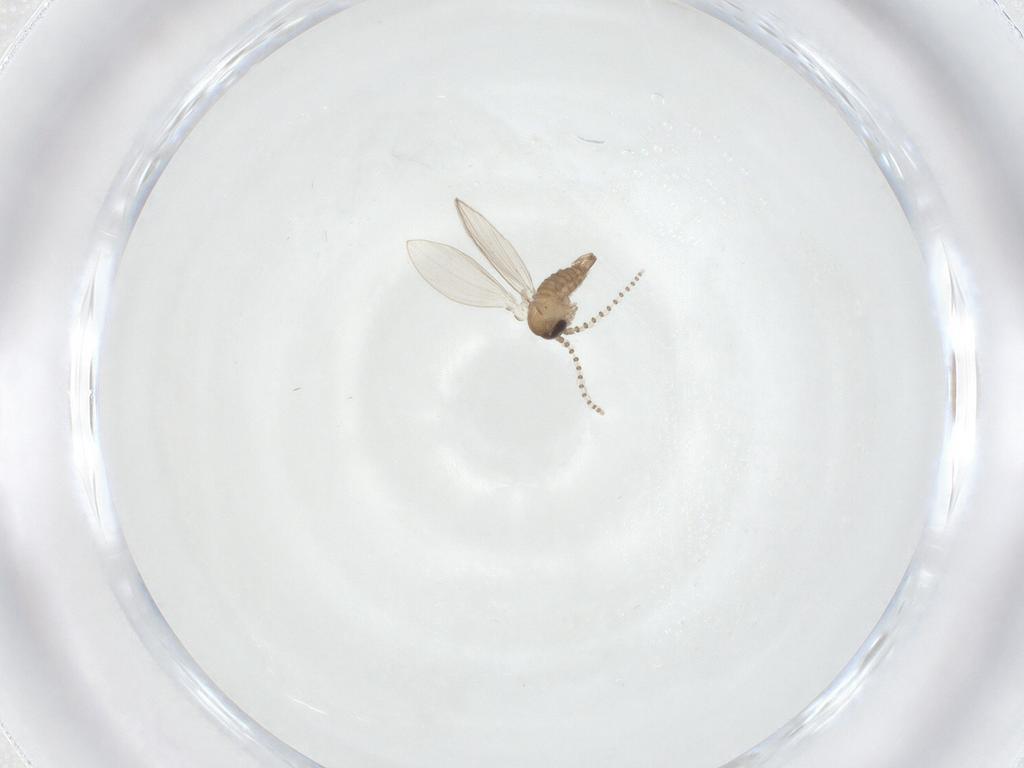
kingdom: Animalia
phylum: Arthropoda
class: Insecta
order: Diptera
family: Psychodidae
